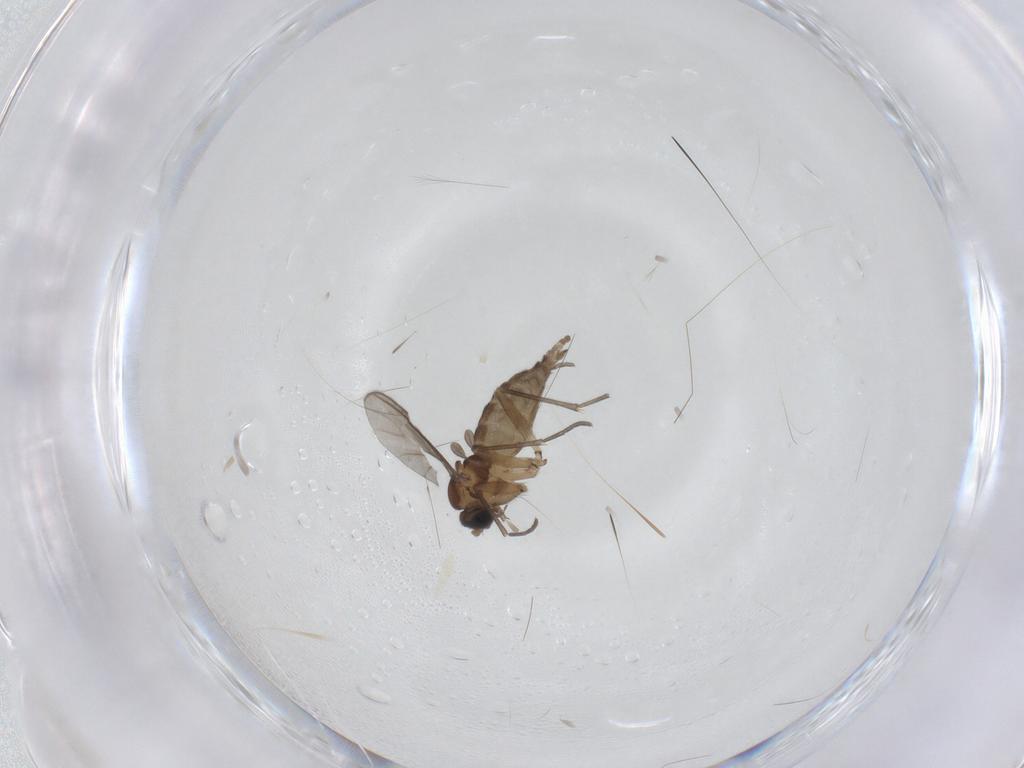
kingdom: Animalia
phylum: Arthropoda
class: Insecta
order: Diptera
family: Sciaridae
